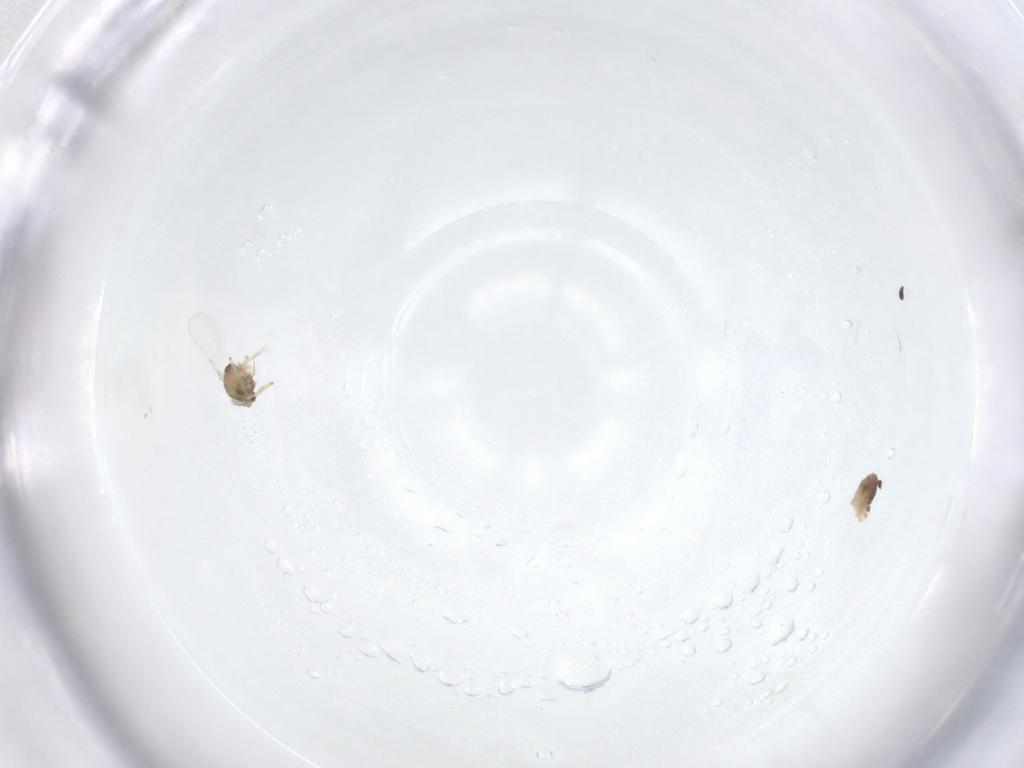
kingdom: Animalia
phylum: Arthropoda
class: Insecta
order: Diptera
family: Chironomidae
